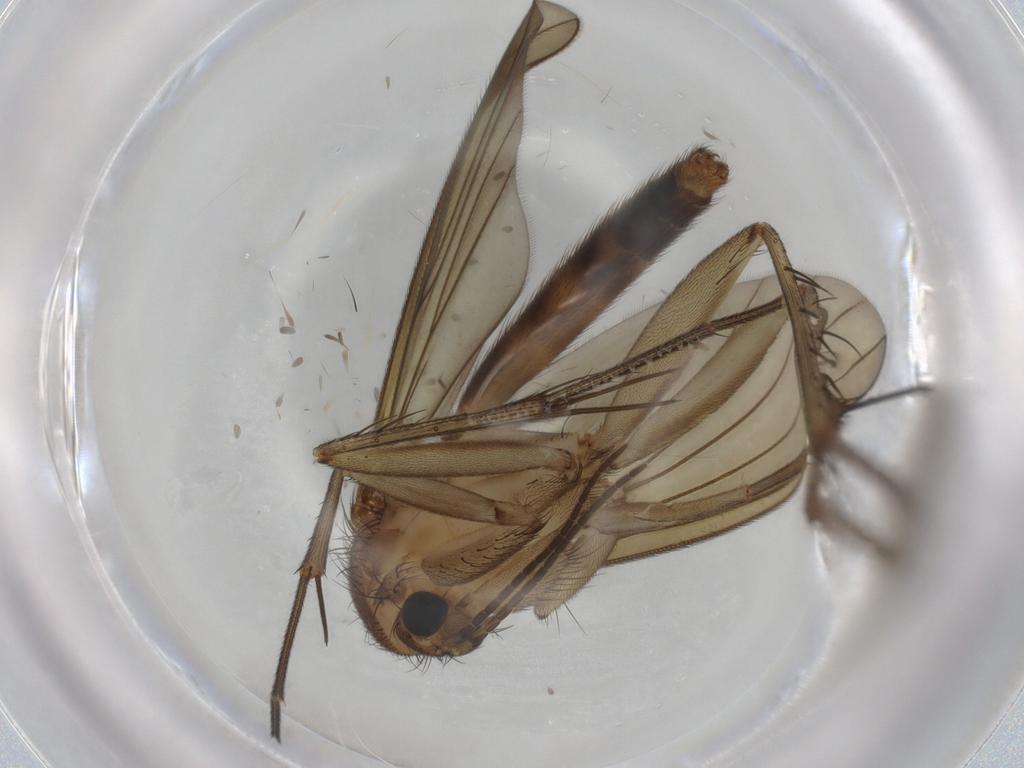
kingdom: Animalia
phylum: Arthropoda
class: Insecta
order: Diptera
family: Mycetophilidae
